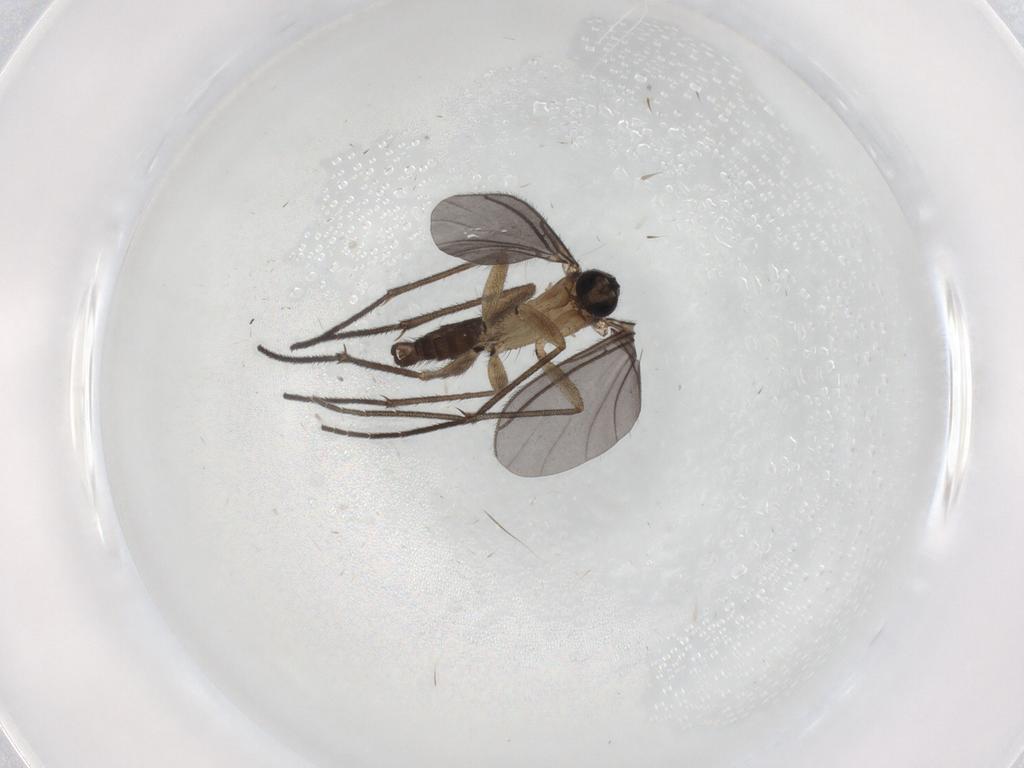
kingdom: Animalia
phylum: Arthropoda
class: Insecta
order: Diptera
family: Sciaridae
